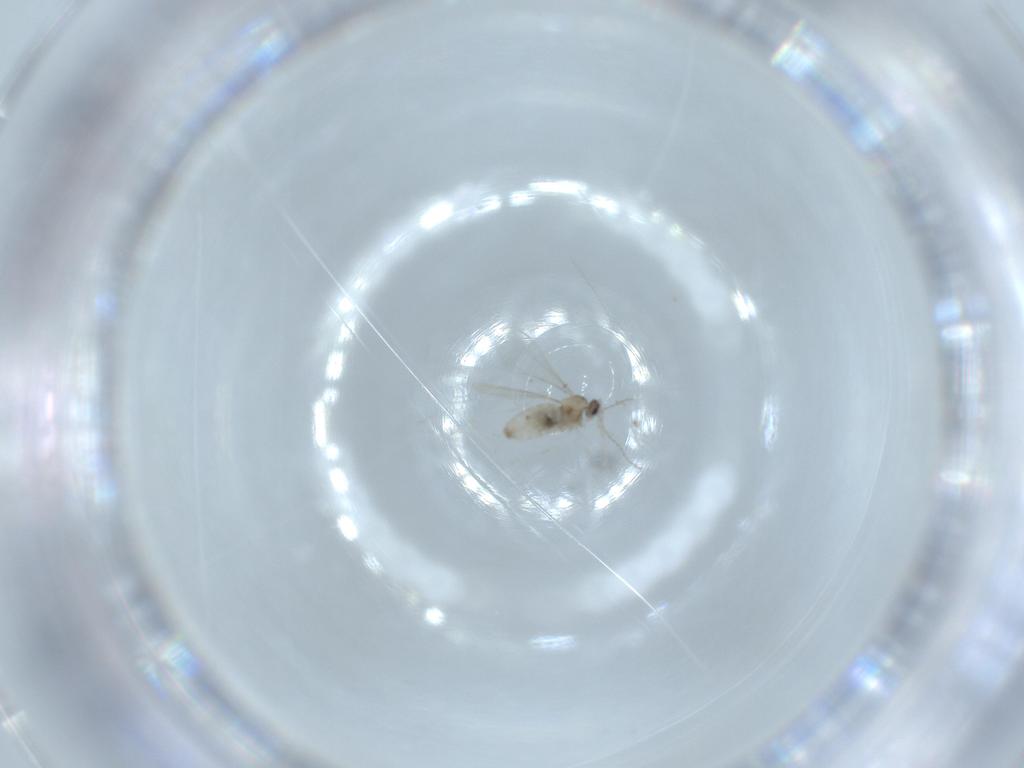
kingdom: Animalia
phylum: Arthropoda
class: Insecta
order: Diptera
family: Cecidomyiidae
